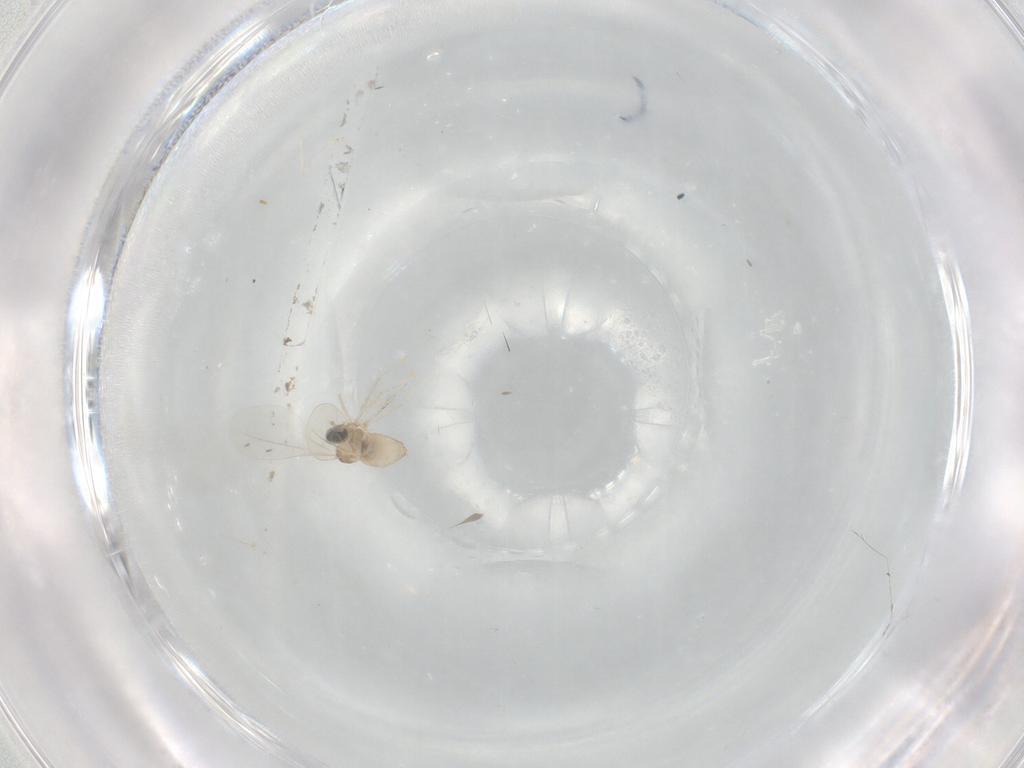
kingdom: Animalia
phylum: Arthropoda
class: Insecta
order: Diptera
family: Cecidomyiidae
